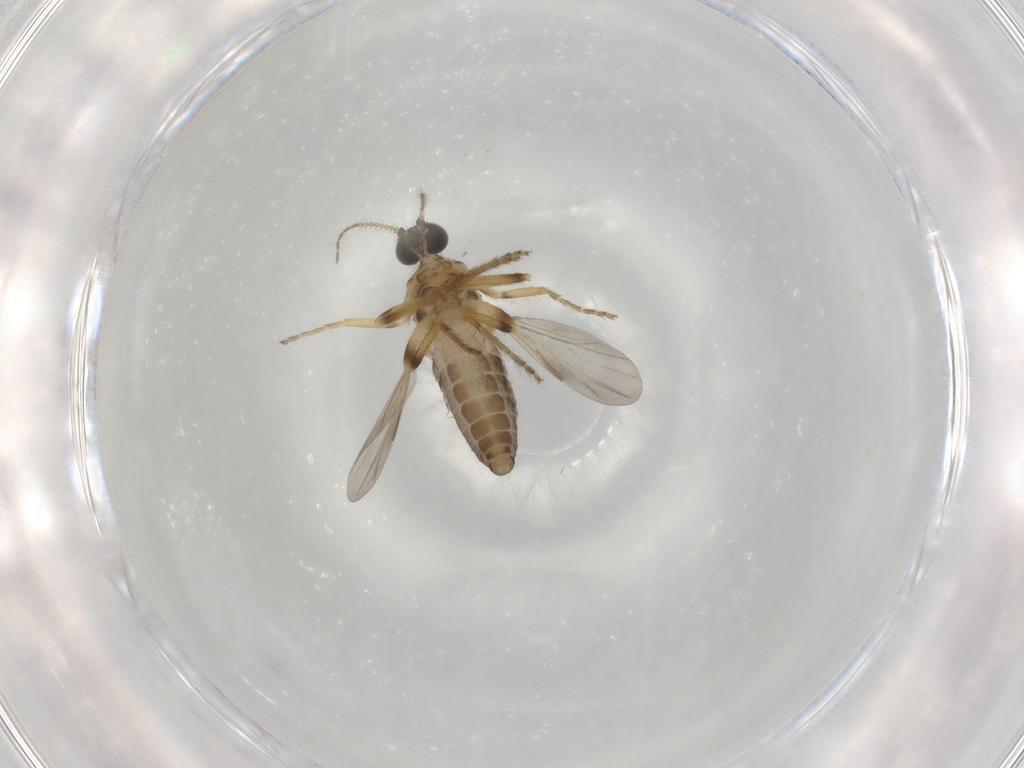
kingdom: Animalia
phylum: Arthropoda
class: Insecta
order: Diptera
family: Ceratopogonidae
